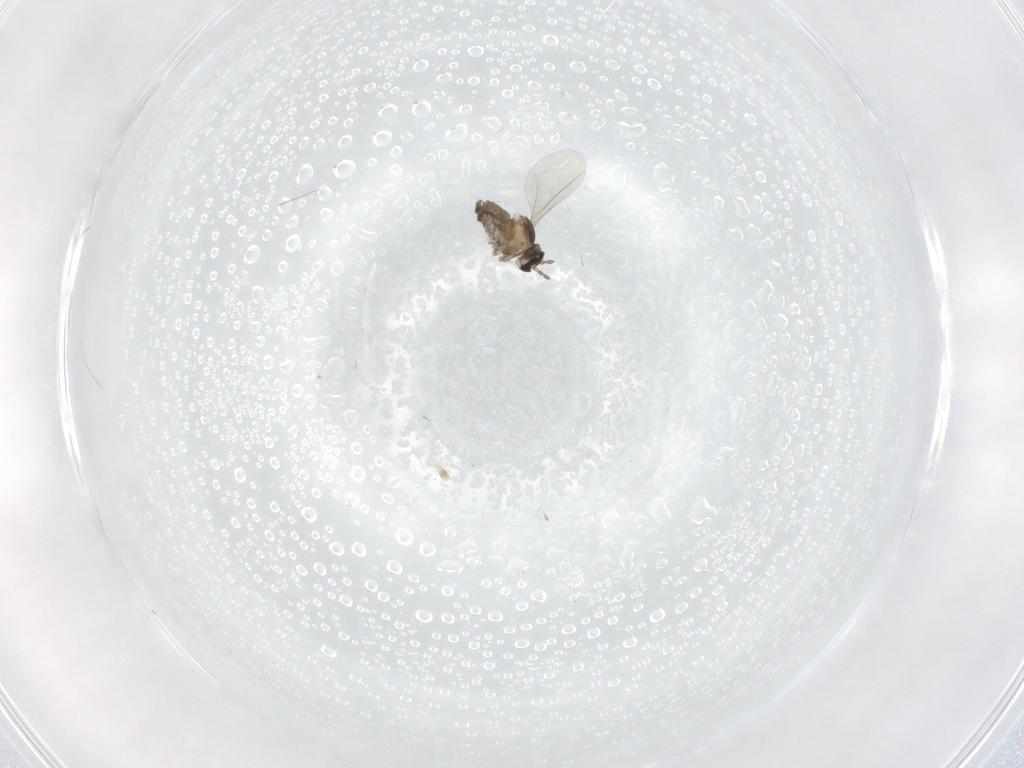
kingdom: Animalia
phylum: Arthropoda
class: Insecta
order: Diptera
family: Cecidomyiidae
